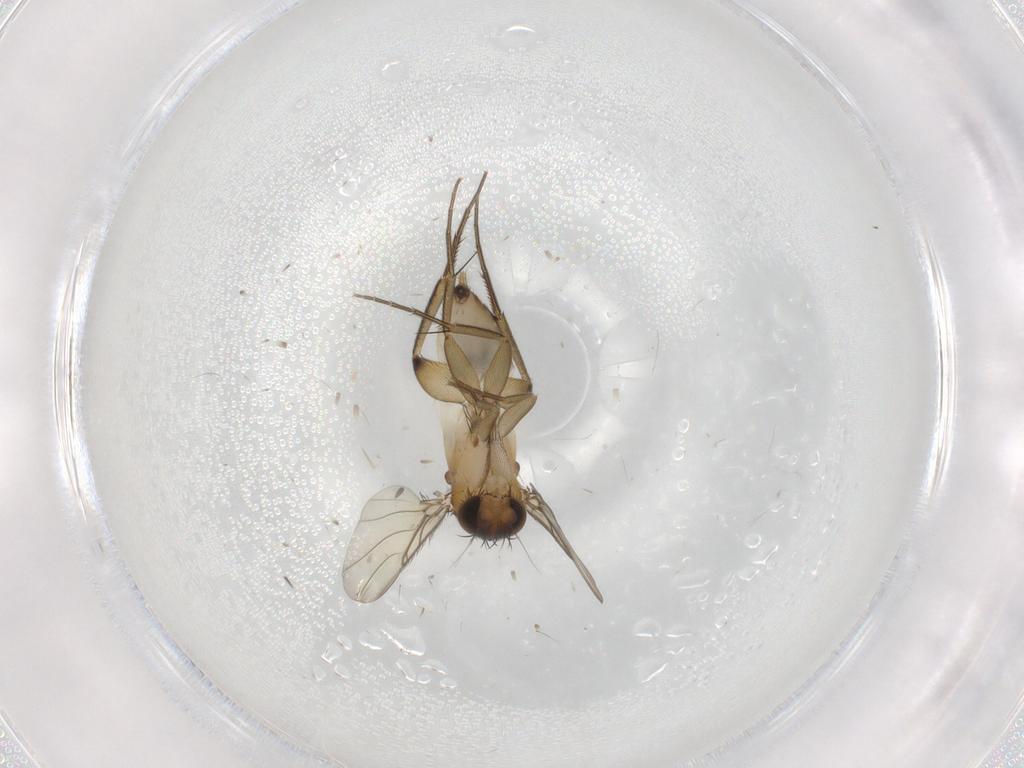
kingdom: Animalia
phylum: Arthropoda
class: Insecta
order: Diptera
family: Phoridae
